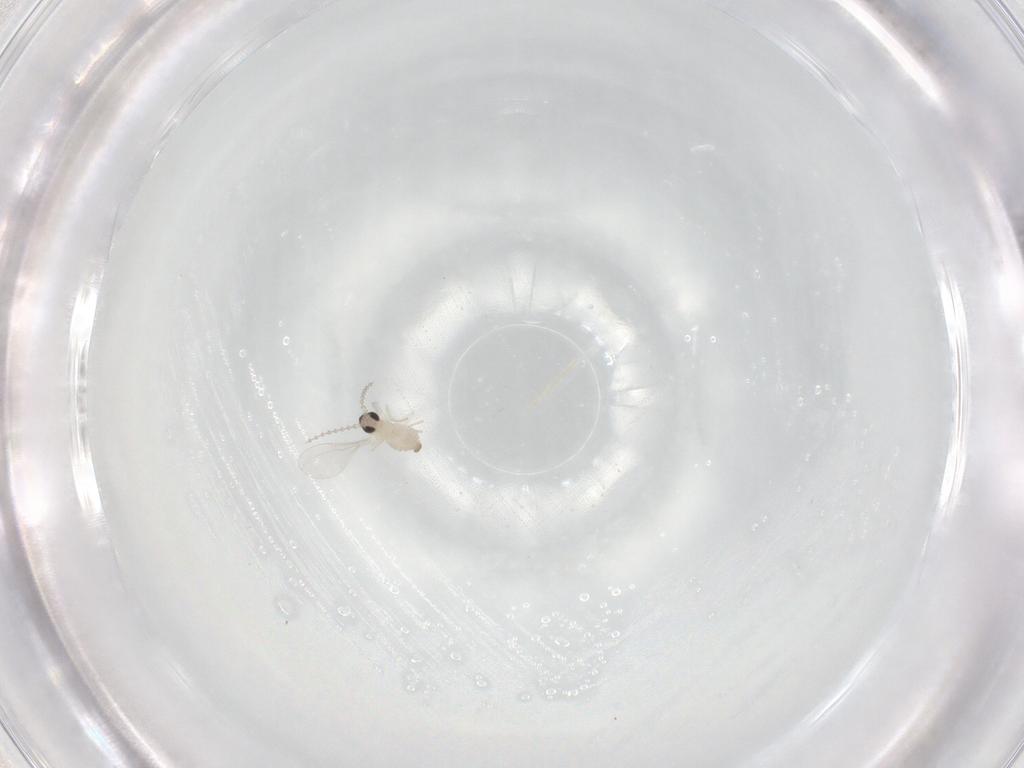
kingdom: Animalia
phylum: Arthropoda
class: Insecta
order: Diptera
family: Cecidomyiidae
